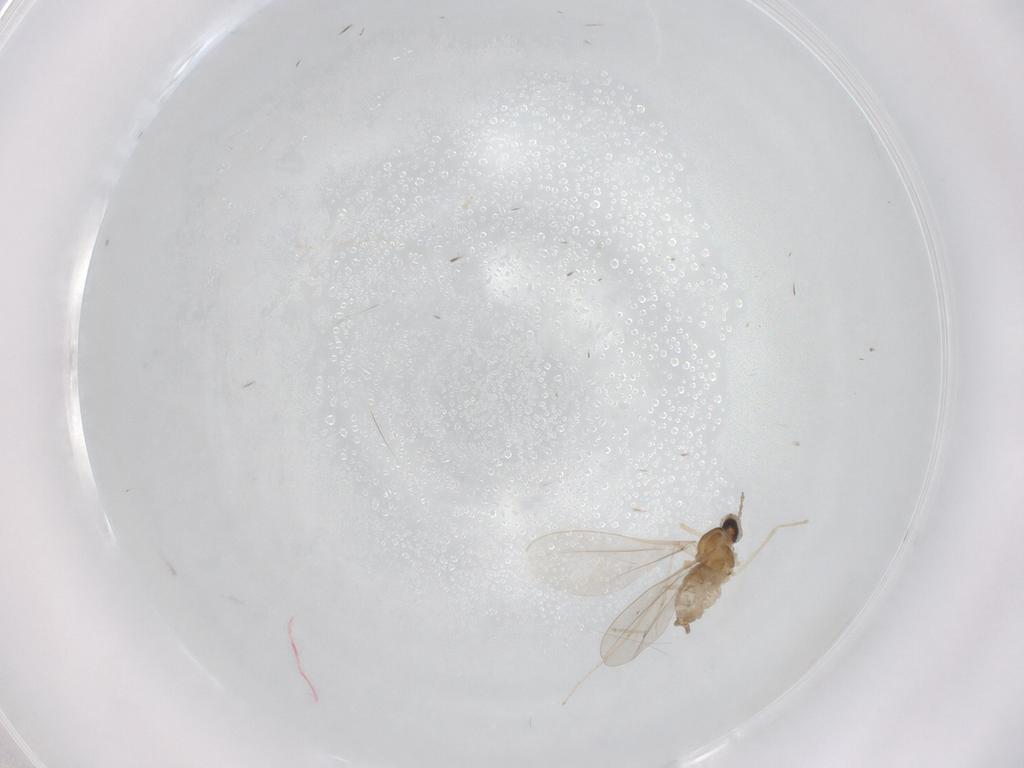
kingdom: Animalia
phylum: Arthropoda
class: Insecta
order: Diptera
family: Cecidomyiidae
